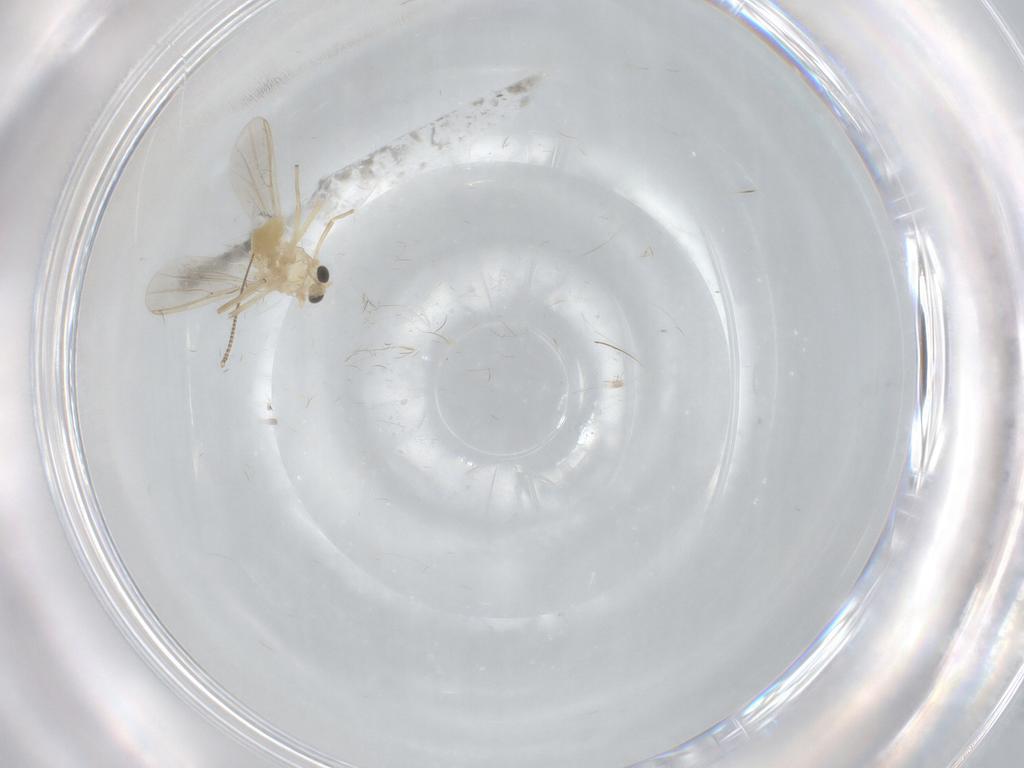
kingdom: Animalia
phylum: Arthropoda
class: Insecta
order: Diptera
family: Chironomidae
